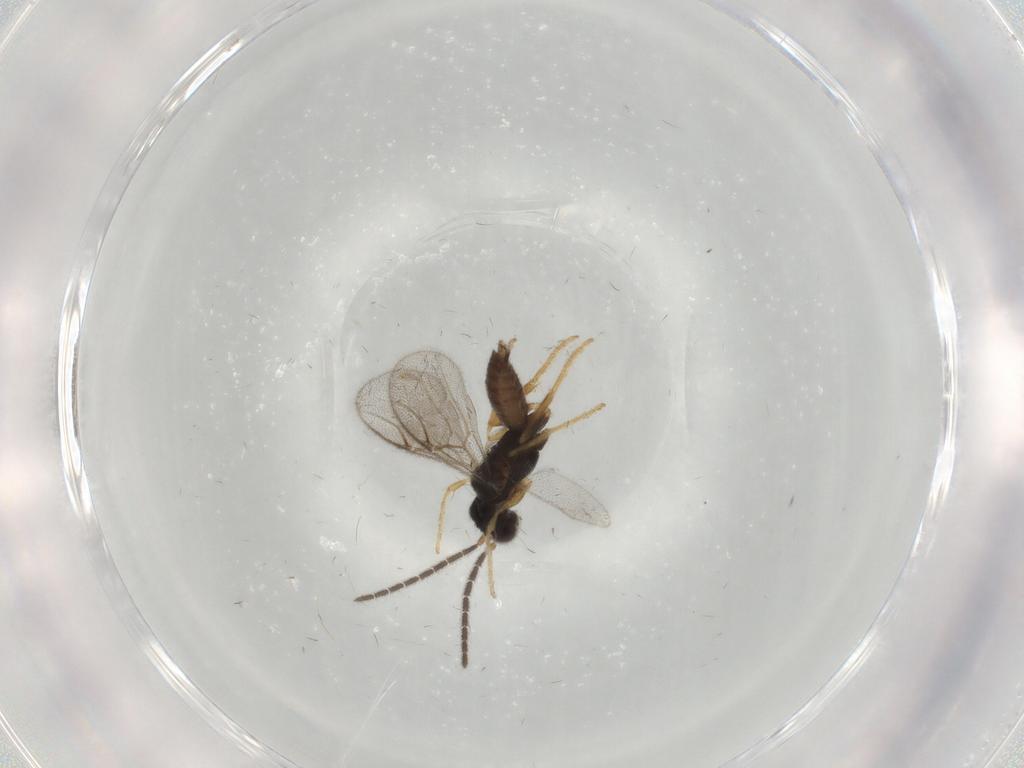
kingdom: Animalia
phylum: Arthropoda
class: Insecta
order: Hymenoptera
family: Dryinidae
